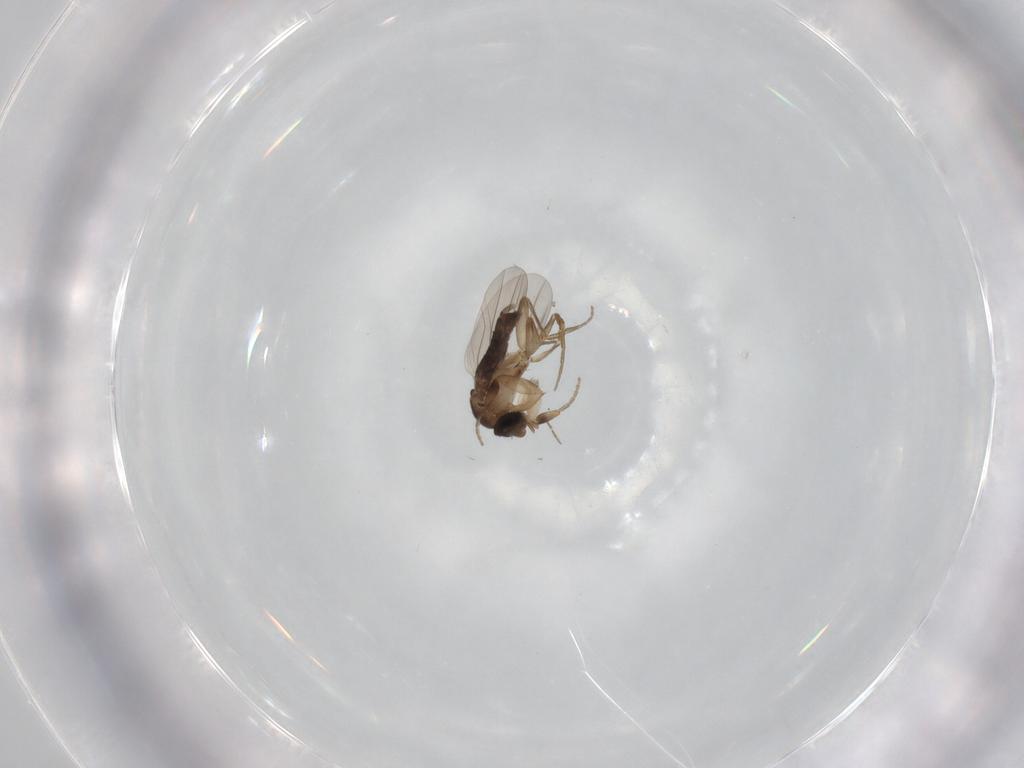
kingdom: Animalia
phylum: Arthropoda
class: Insecta
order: Diptera
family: Phoridae
